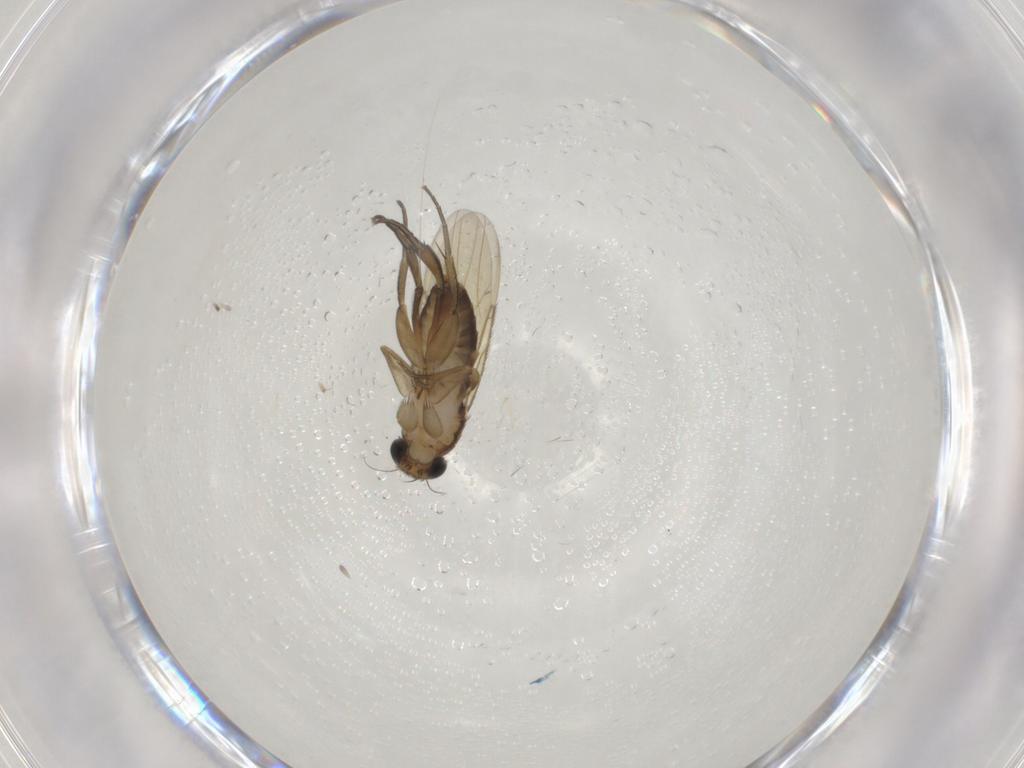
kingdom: Animalia
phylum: Arthropoda
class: Insecta
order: Diptera
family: Phoridae
